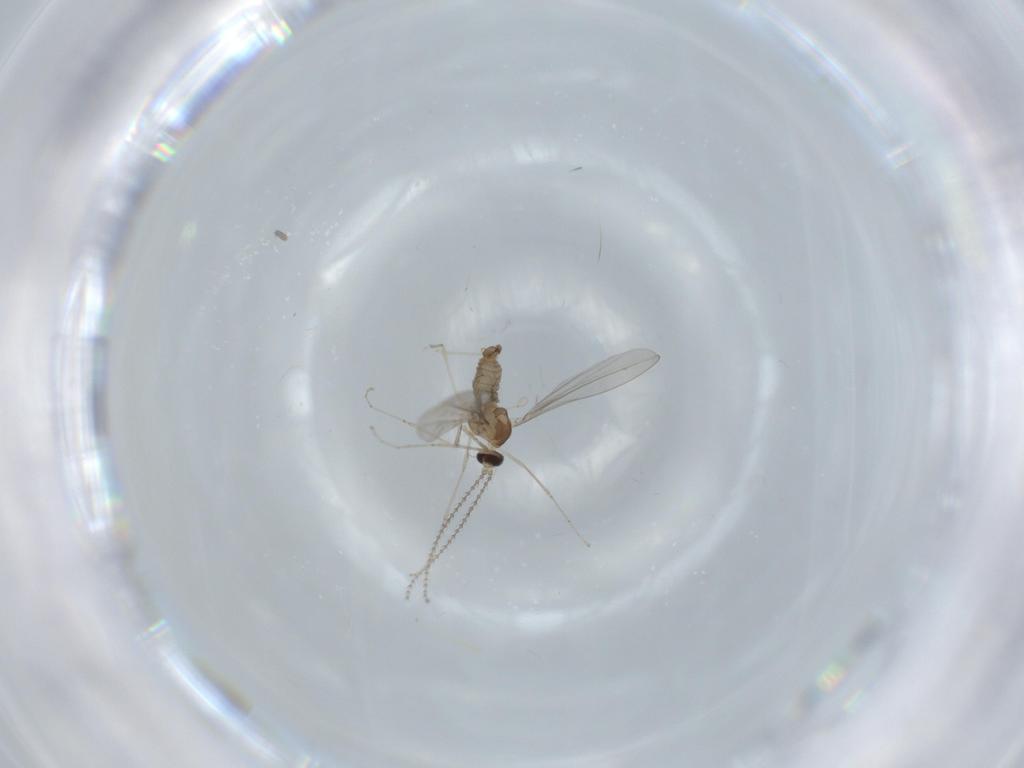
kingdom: Animalia
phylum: Arthropoda
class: Insecta
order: Diptera
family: Cecidomyiidae
